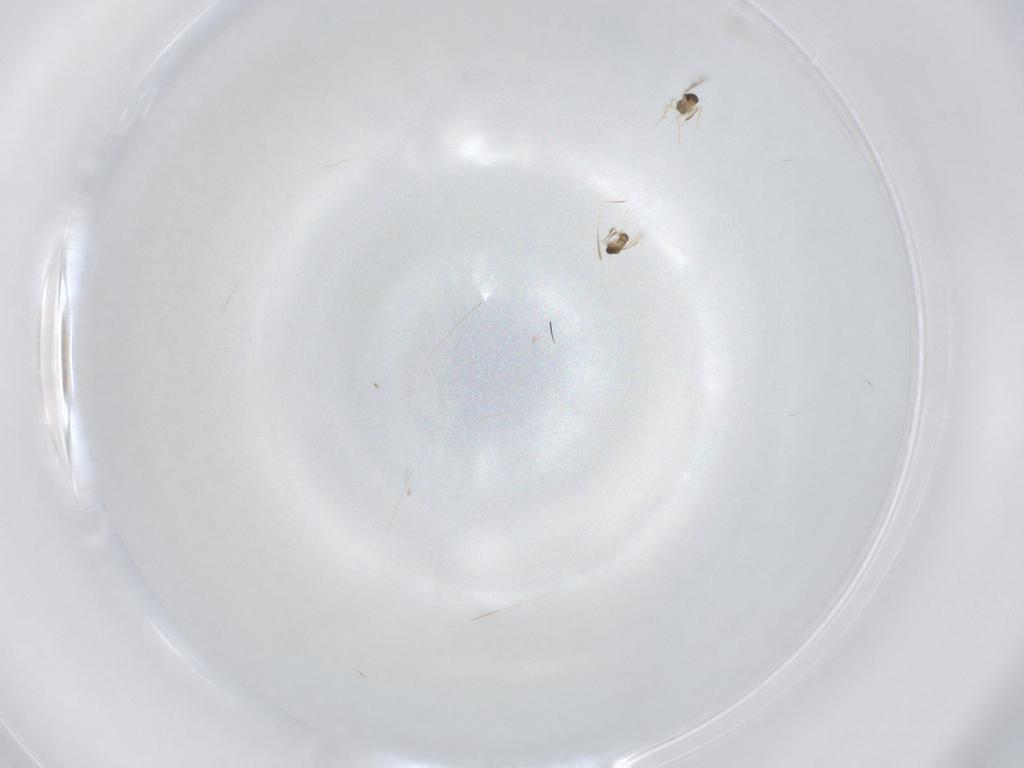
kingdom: Animalia
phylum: Arthropoda
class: Insecta
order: Hymenoptera
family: Mymaridae
